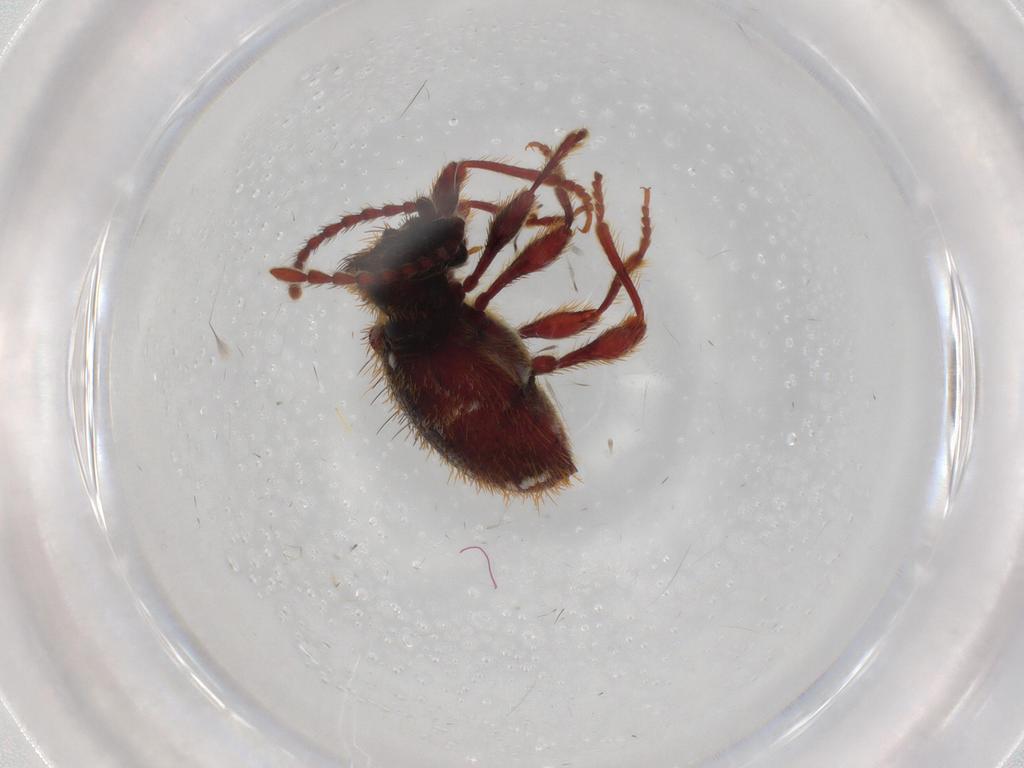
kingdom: Animalia
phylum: Arthropoda
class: Insecta
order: Coleoptera
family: Ptinidae
